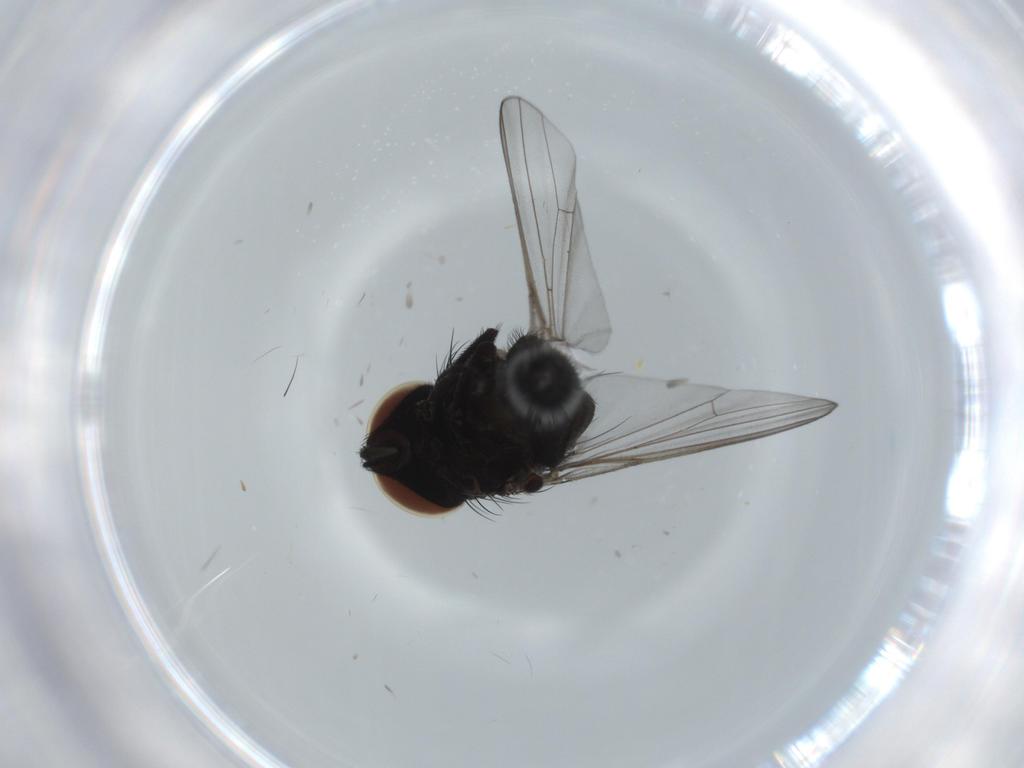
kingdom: Animalia
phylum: Arthropoda
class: Insecta
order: Diptera
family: Milichiidae
